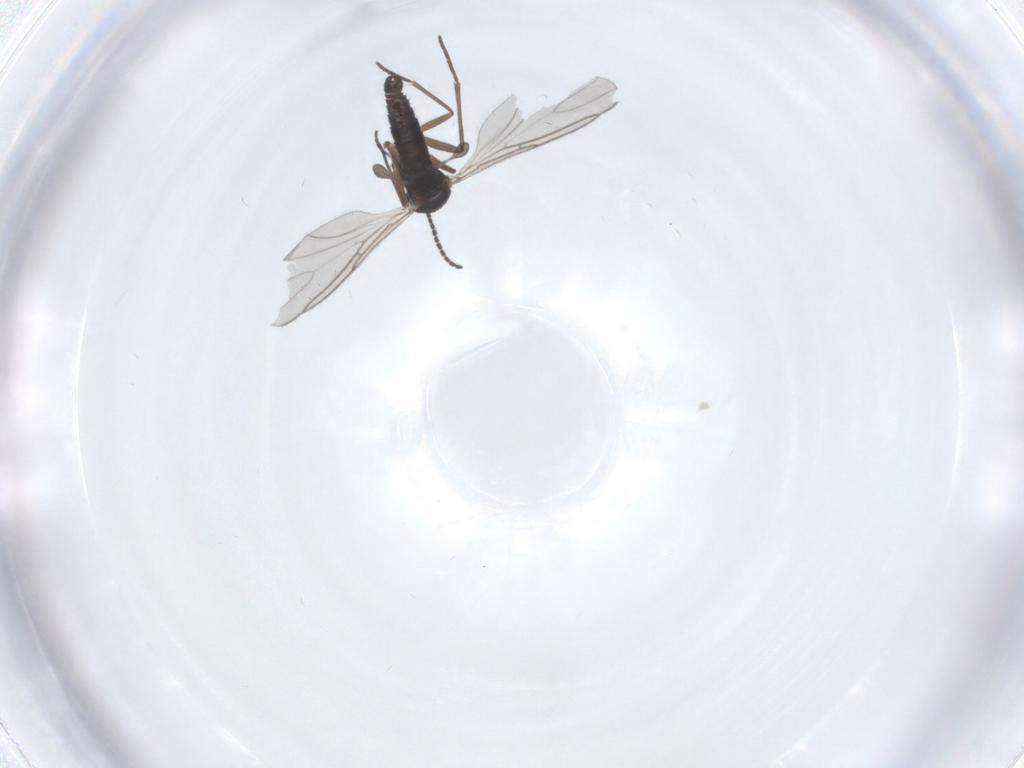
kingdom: Animalia
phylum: Arthropoda
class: Insecta
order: Diptera
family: Sciaridae
